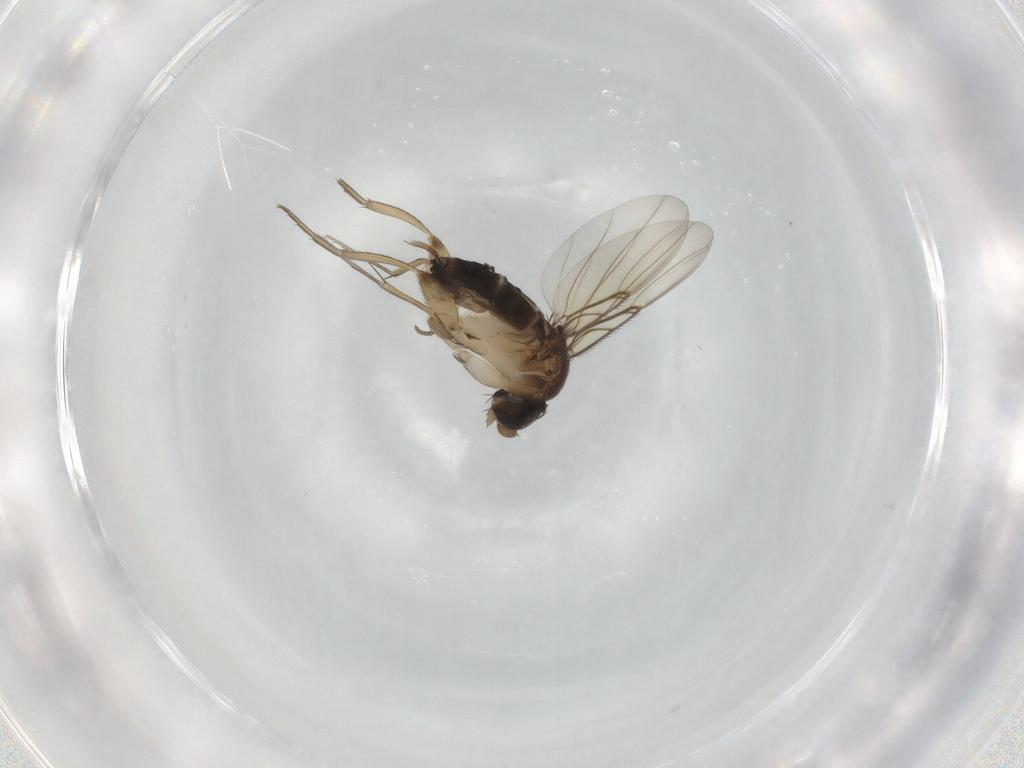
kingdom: Animalia
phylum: Arthropoda
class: Insecta
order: Diptera
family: Phoridae
